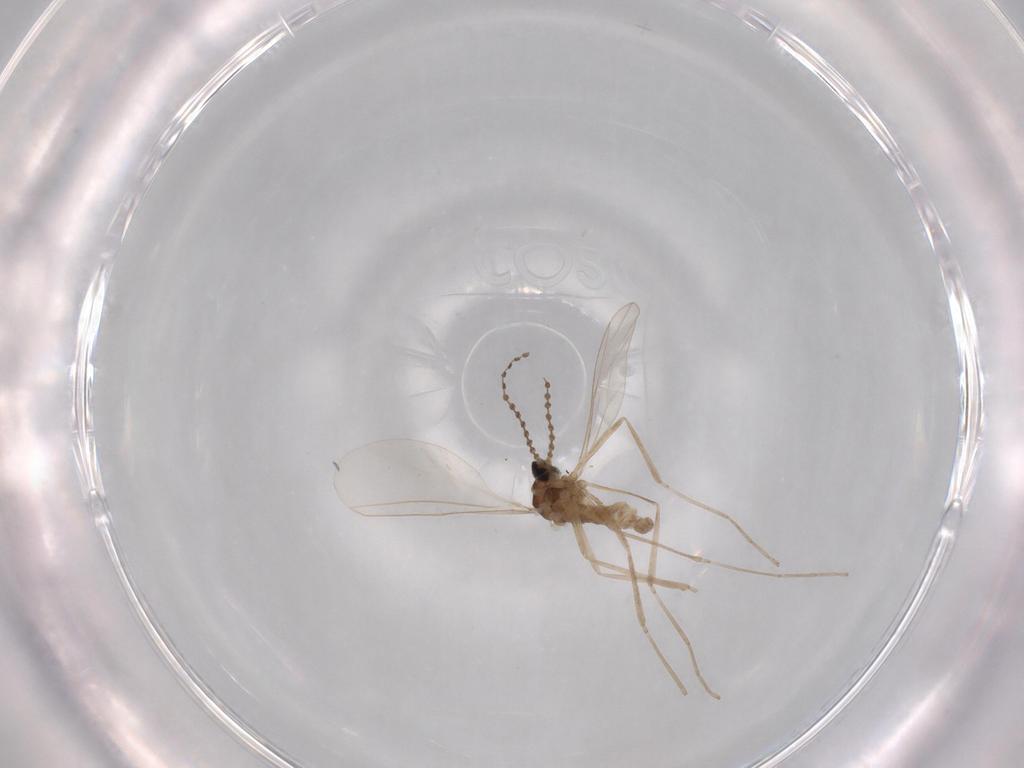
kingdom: Animalia
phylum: Arthropoda
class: Insecta
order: Diptera
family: Cecidomyiidae
